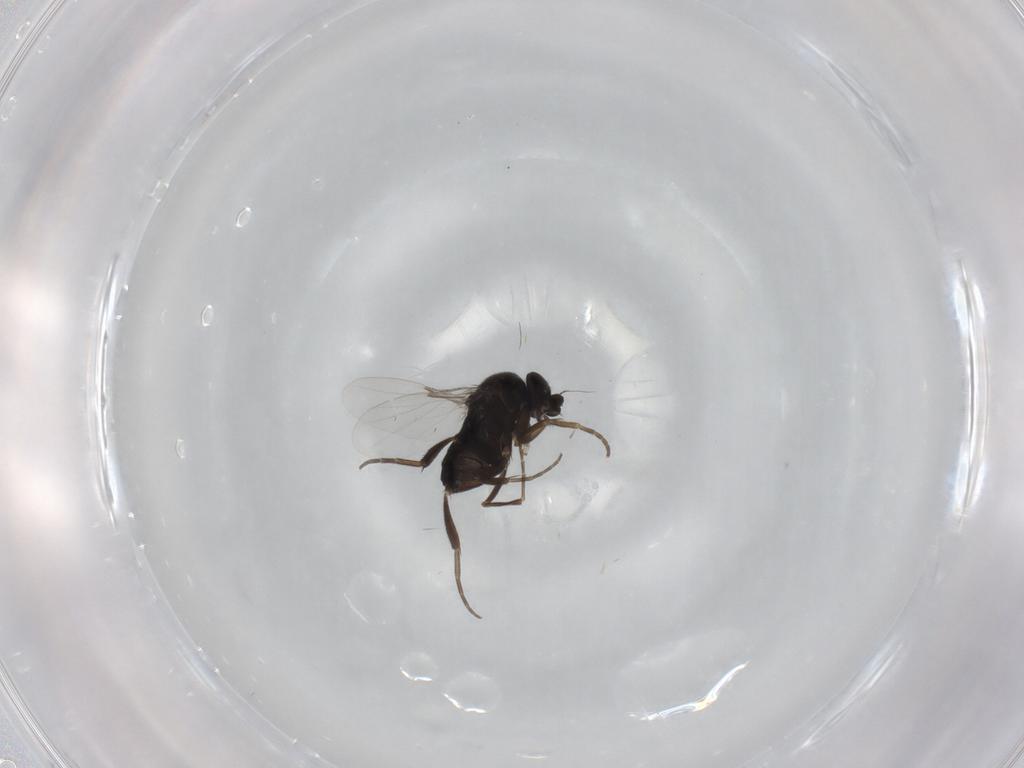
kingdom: Animalia
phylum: Arthropoda
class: Insecta
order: Diptera
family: Phoridae
